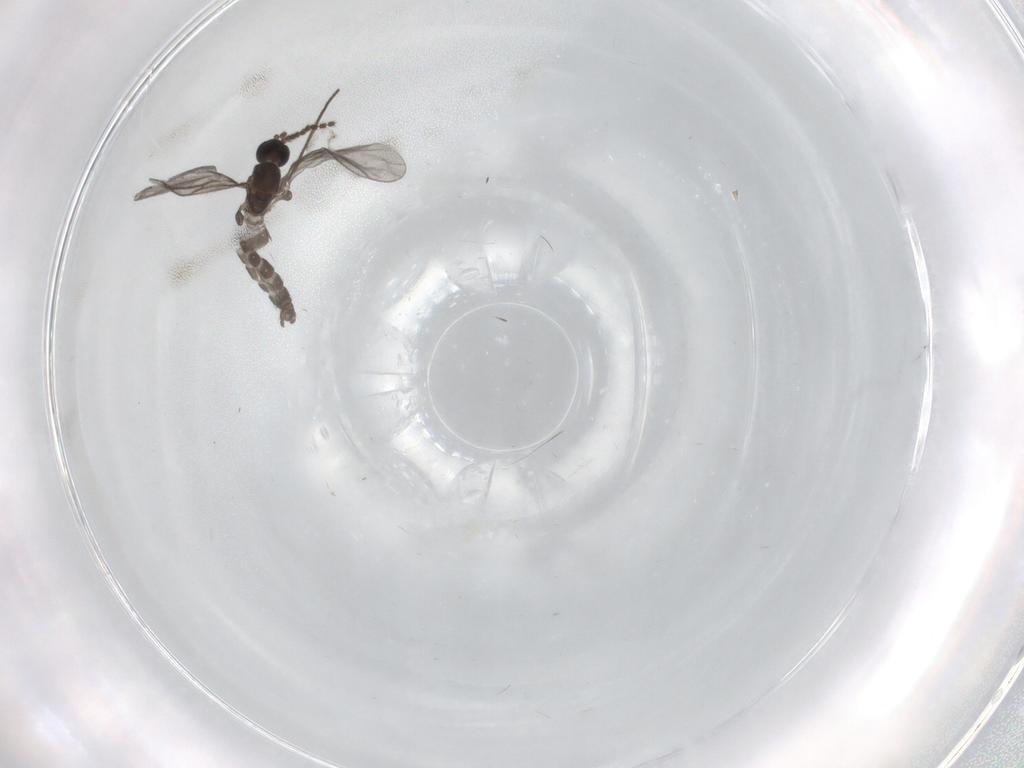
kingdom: Animalia
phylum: Arthropoda
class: Insecta
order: Diptera
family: Sciaridae
